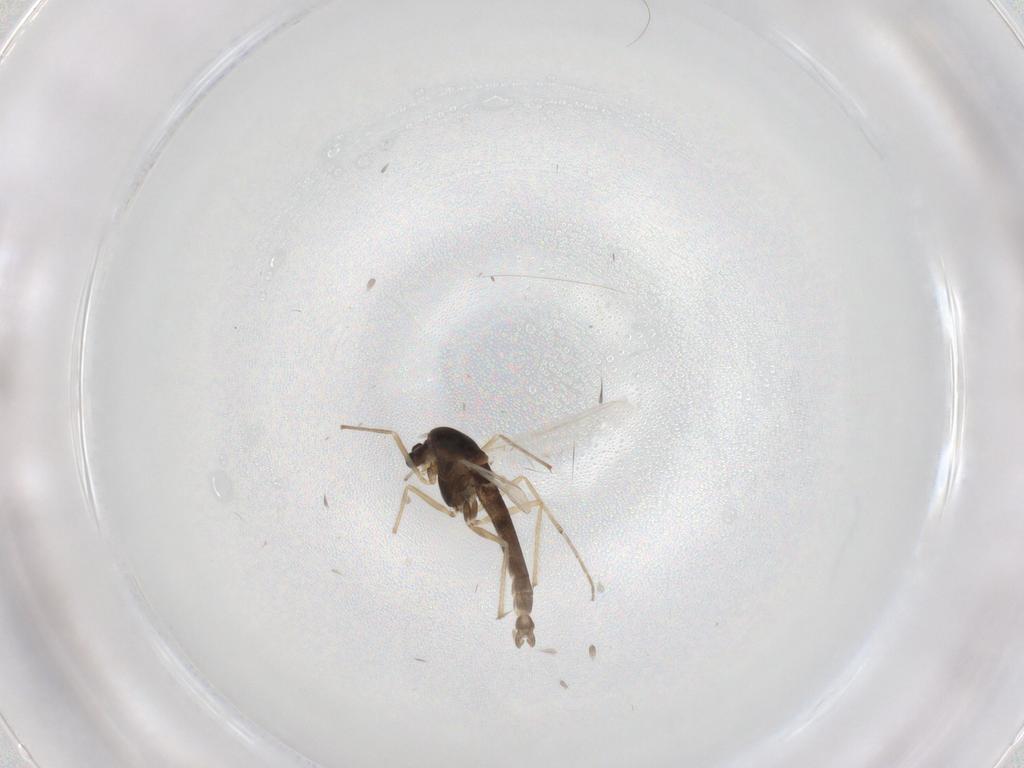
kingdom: Animalia
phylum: Arthropoda
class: Insecta
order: Diptera
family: Chironomidae
